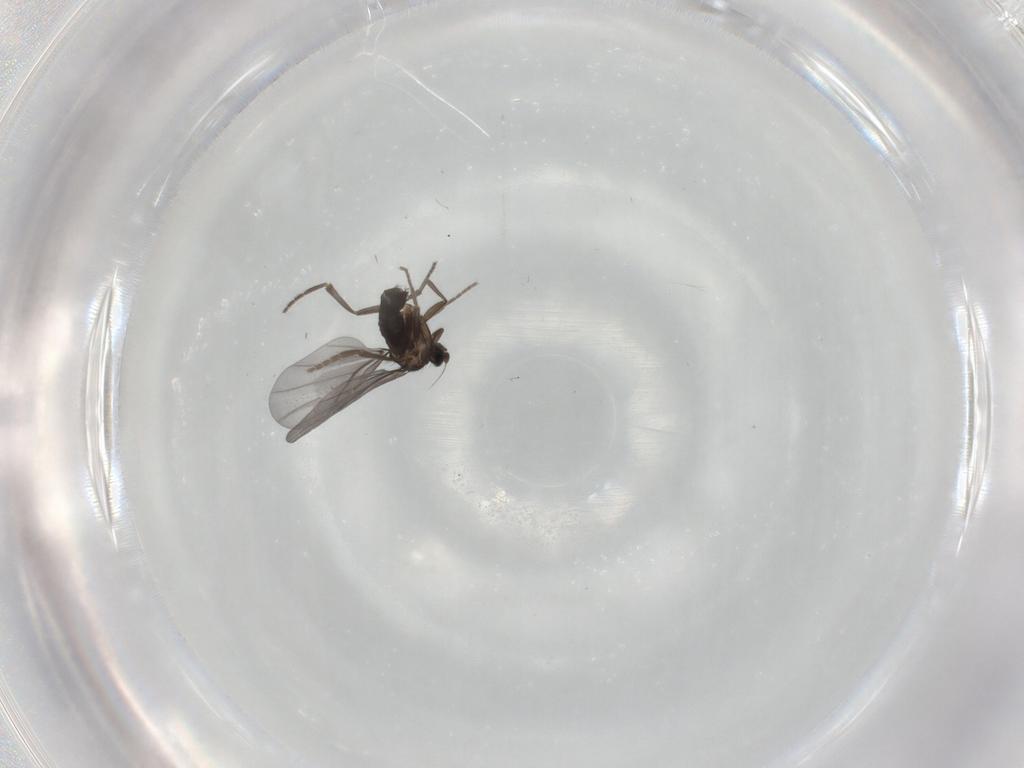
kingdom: Animalia
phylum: Arthropoda
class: Insecta
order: Diptera
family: Phoridae
